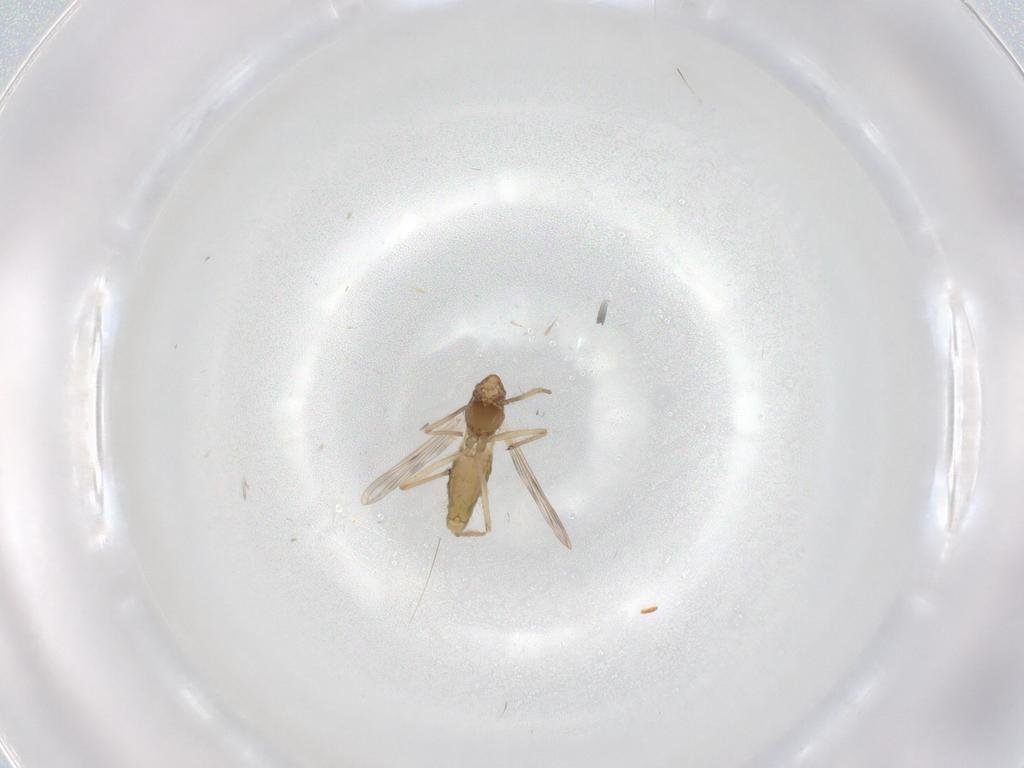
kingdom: Animalia
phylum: Arthropoda
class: Insecta
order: Diptera
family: Chironomidae
